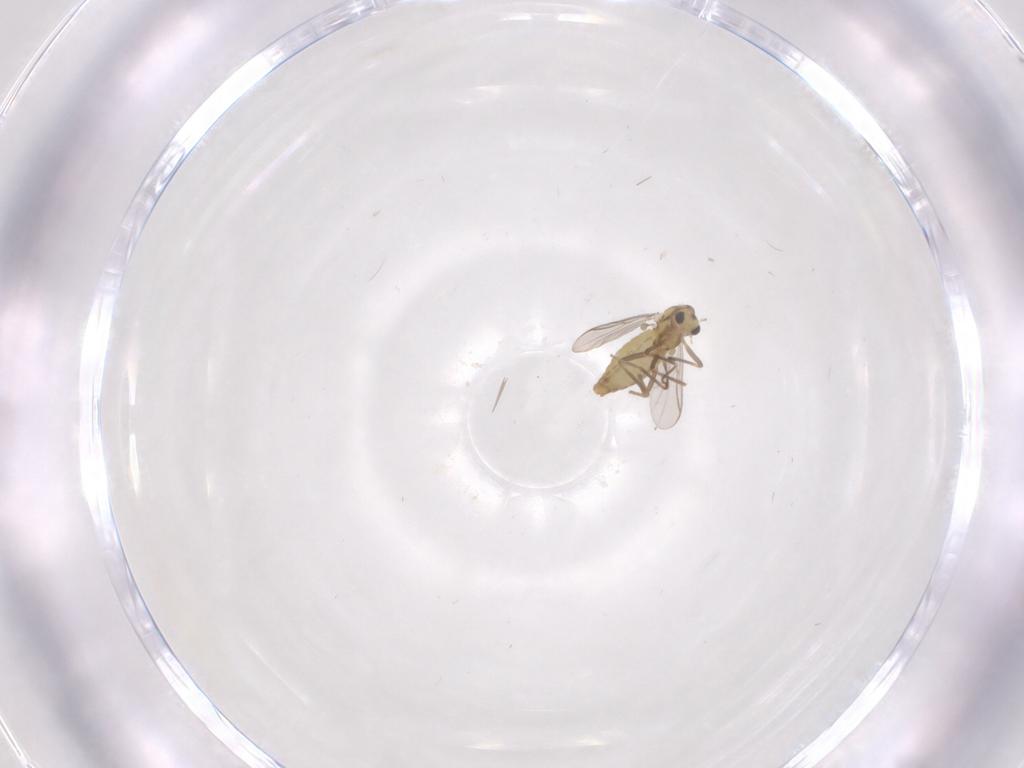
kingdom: Animalia
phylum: Arthropoda
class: Insecta
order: Diptera
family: Chironomidae
